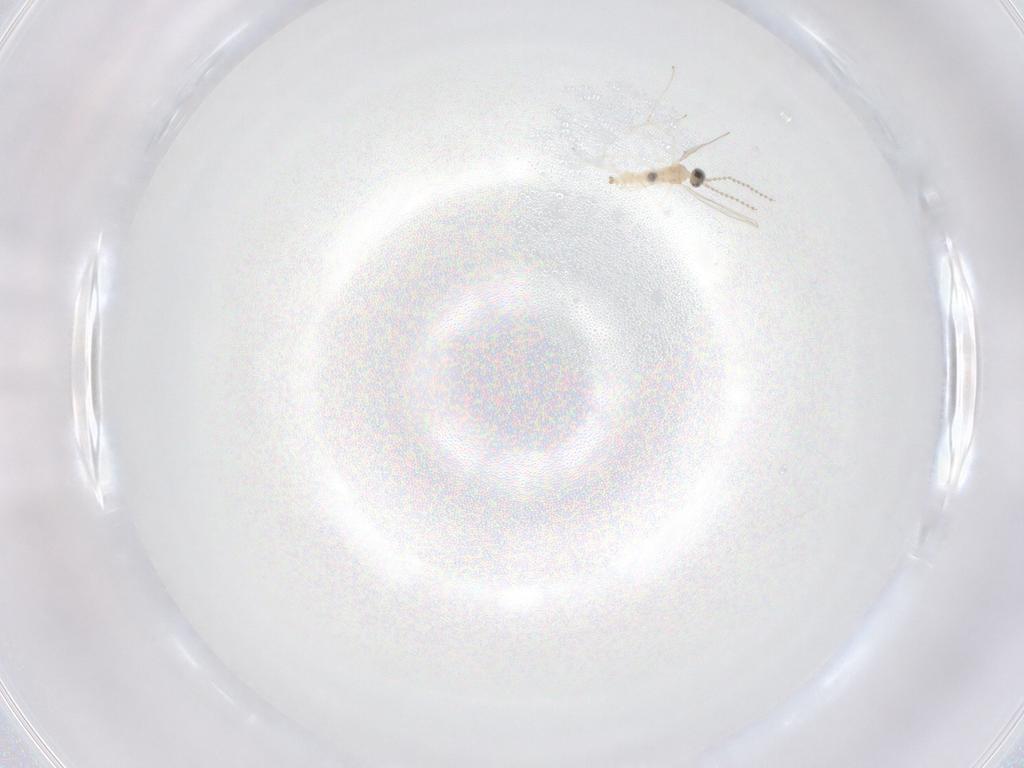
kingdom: Animalia
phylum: Arthropoda
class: Insecta
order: Diptera
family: Cecidomyiidae
